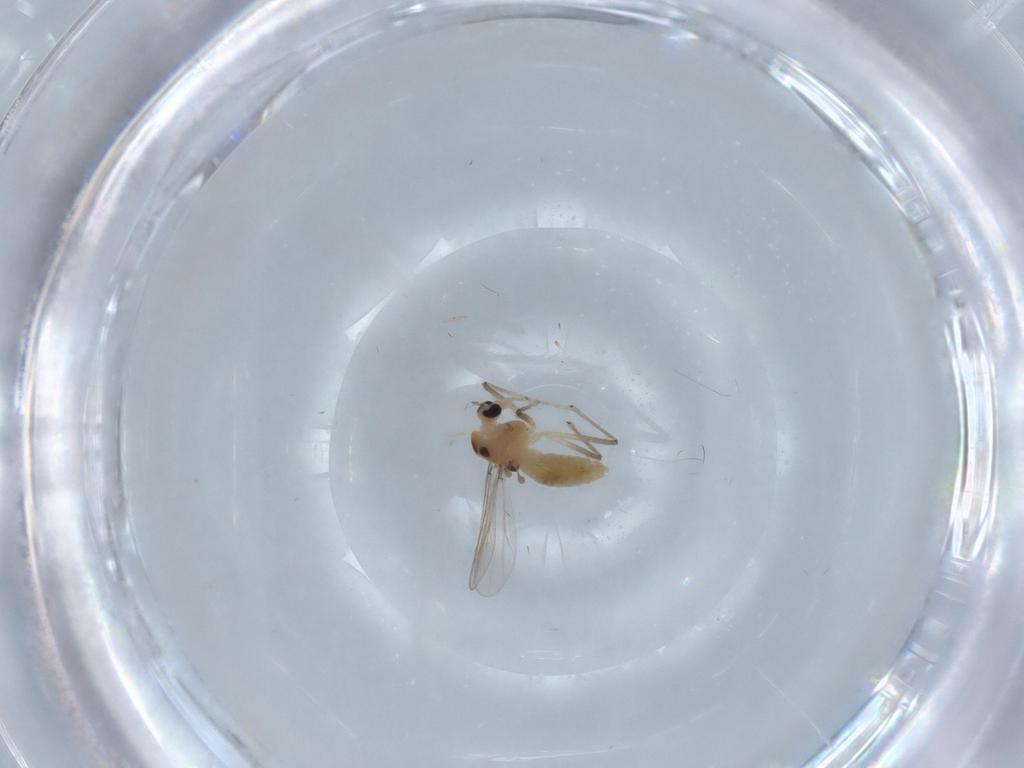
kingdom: Animalia
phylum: Arthropoda
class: Insecta
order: Diptera
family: Chironomidae
